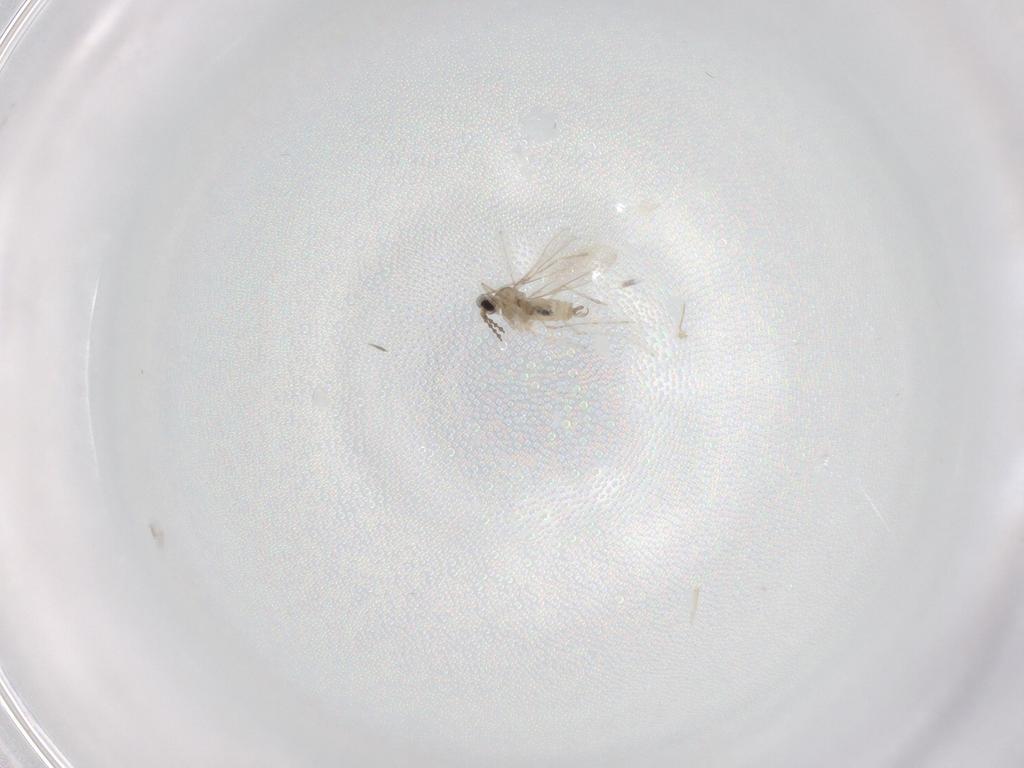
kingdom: Animalia
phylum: Arthropoda
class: Insecta
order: Diptera
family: Cecidomyiidae
